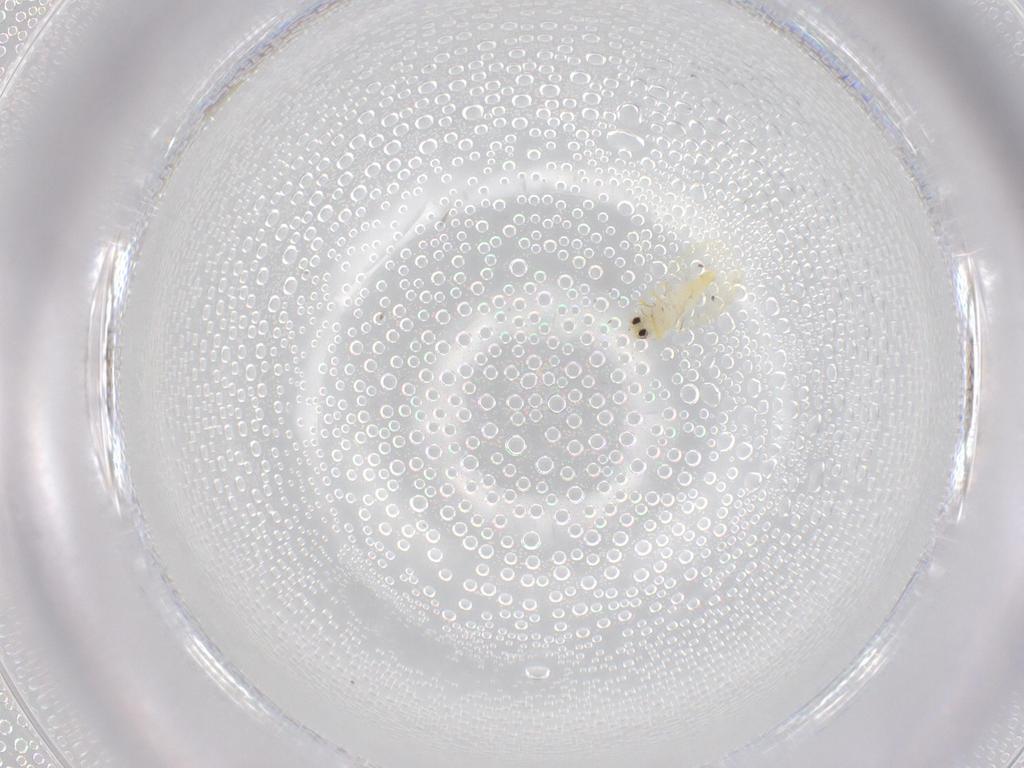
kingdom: Animalia
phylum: Arthropoda
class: Insecta
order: Hemiptera
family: Aleyrodidae
